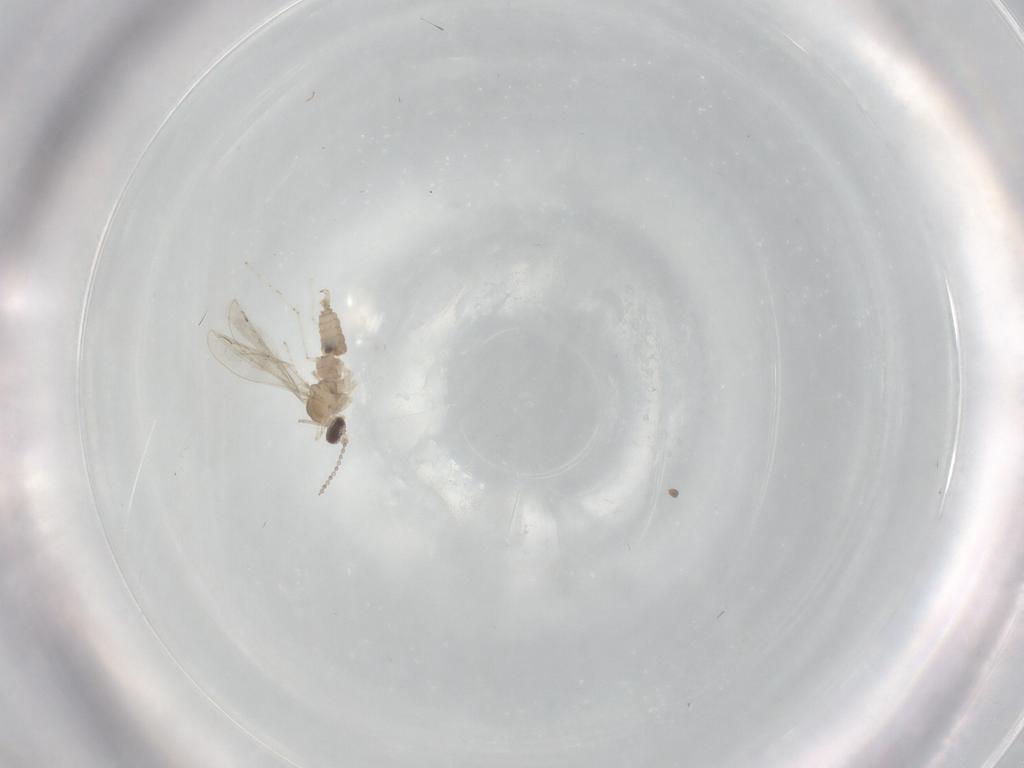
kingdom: Animalia
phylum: Arthropoda
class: Insecta
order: Diptera
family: Cecidomyiidae
